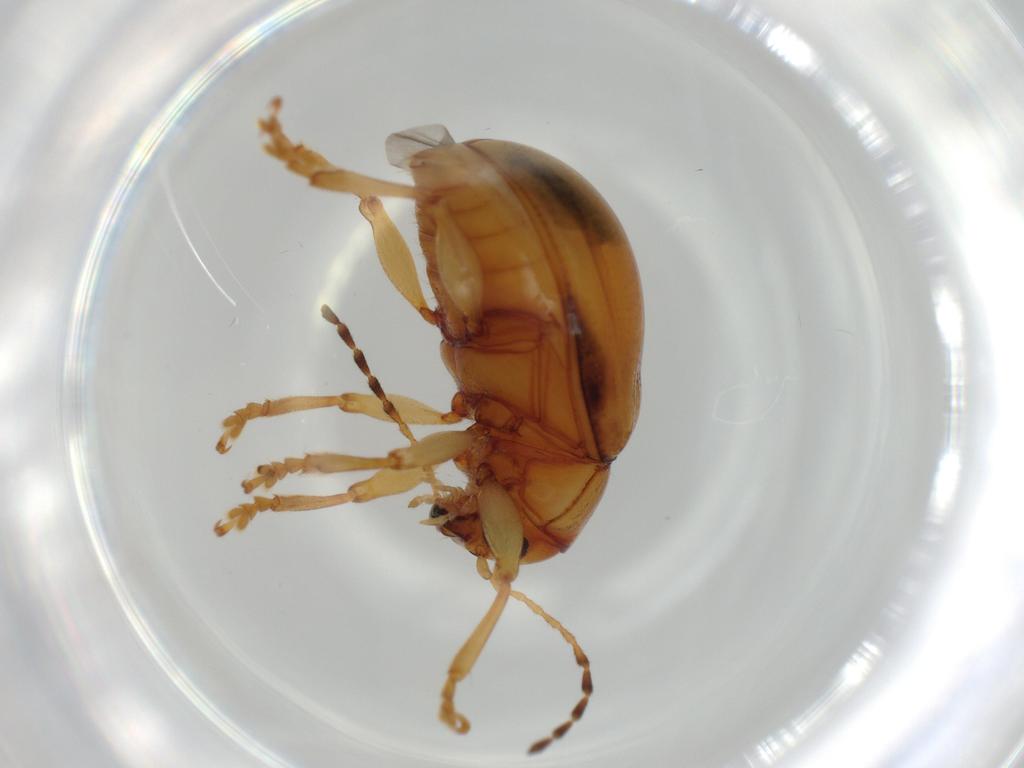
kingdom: Animalia
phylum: Arthropoda
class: Insecta
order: Coleoptera
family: Chrysomelidae
